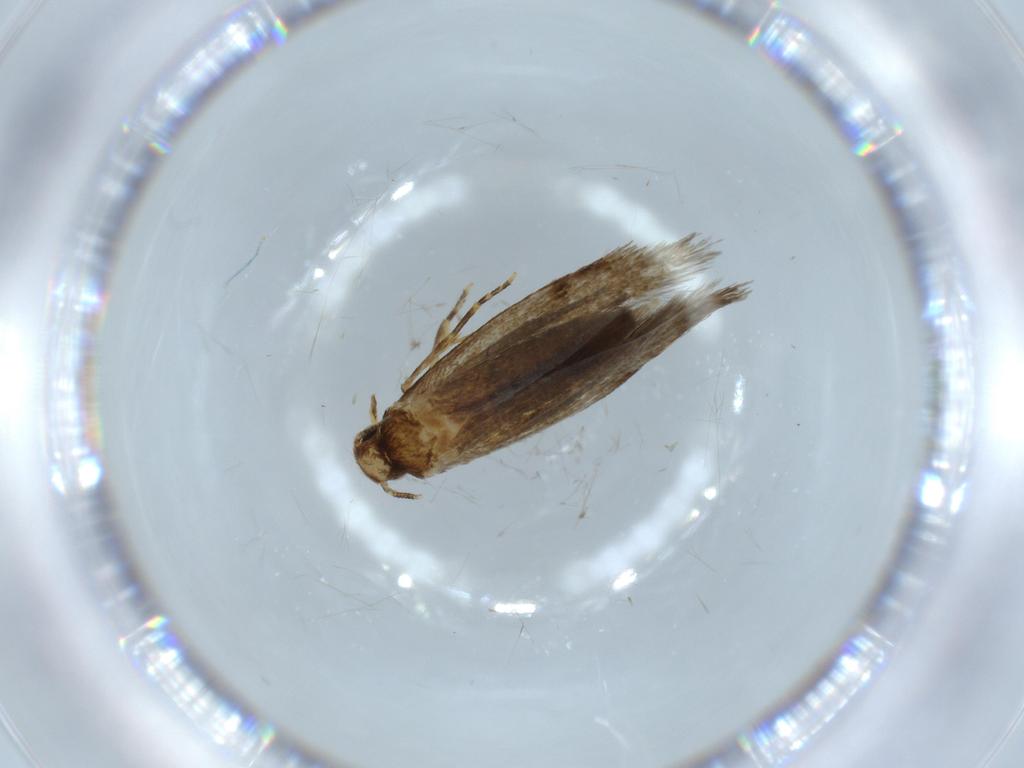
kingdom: Animalia
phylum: Arthropoda
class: Insecta
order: Lepidoptera
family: Tineidae
